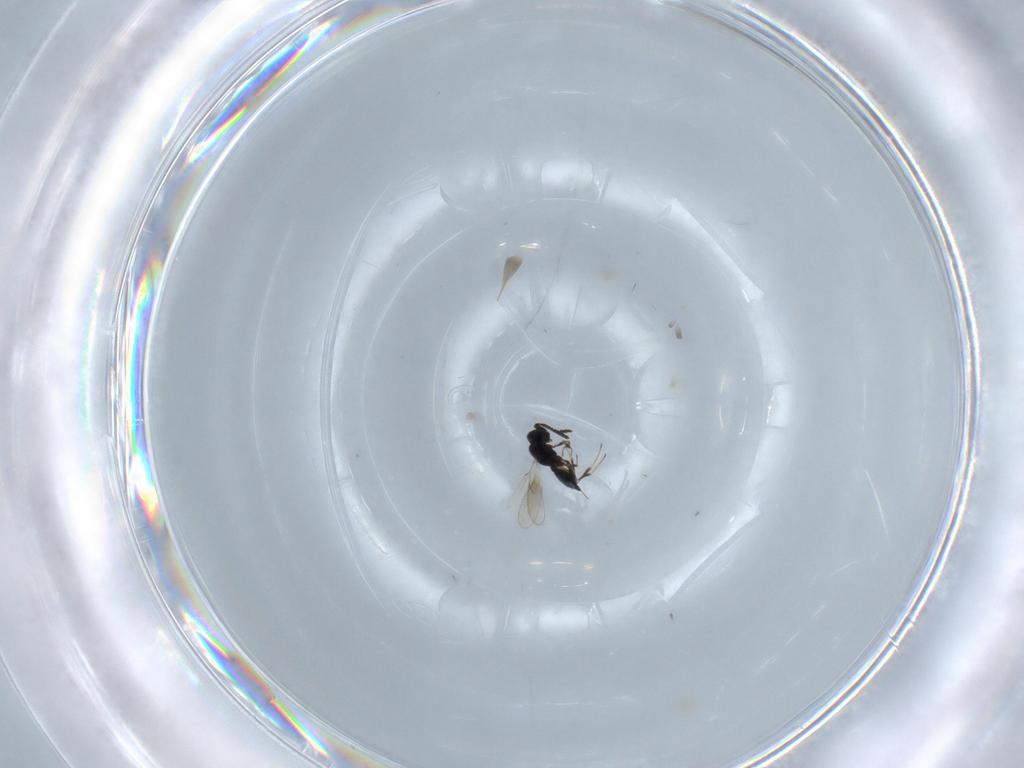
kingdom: Animalia
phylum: Arthropoda
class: Insecta
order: Hymenoptera
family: Scelionidae
